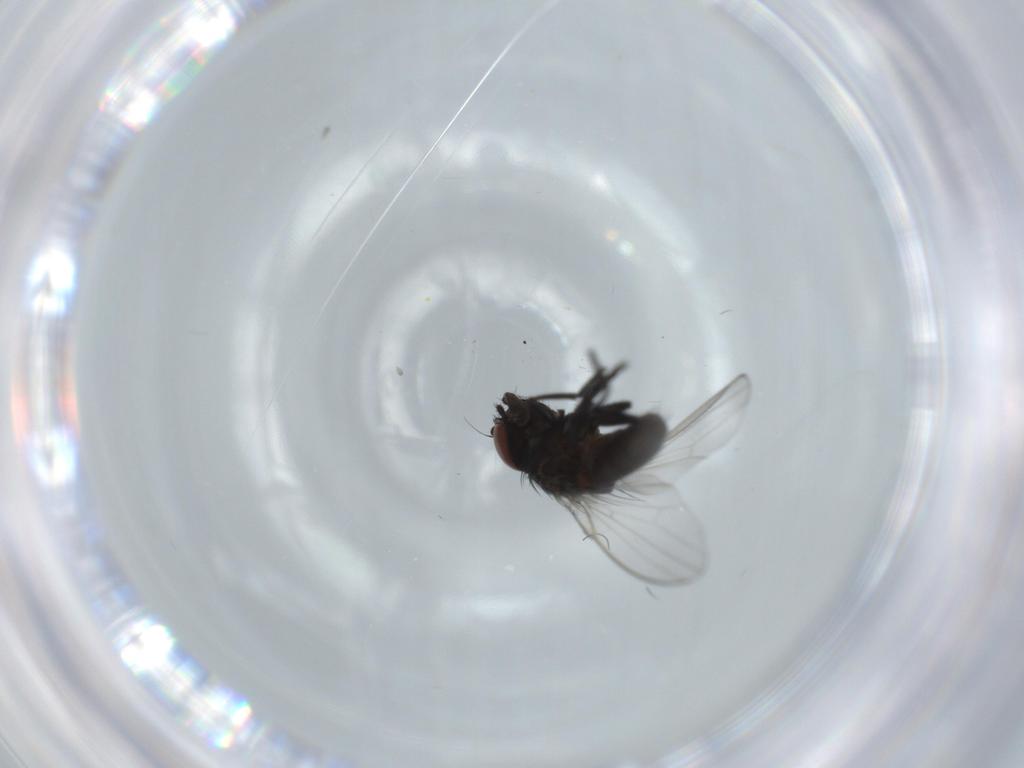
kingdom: Animalia
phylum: Arthropoda
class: Insecta
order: Diptera
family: Milichiidae
